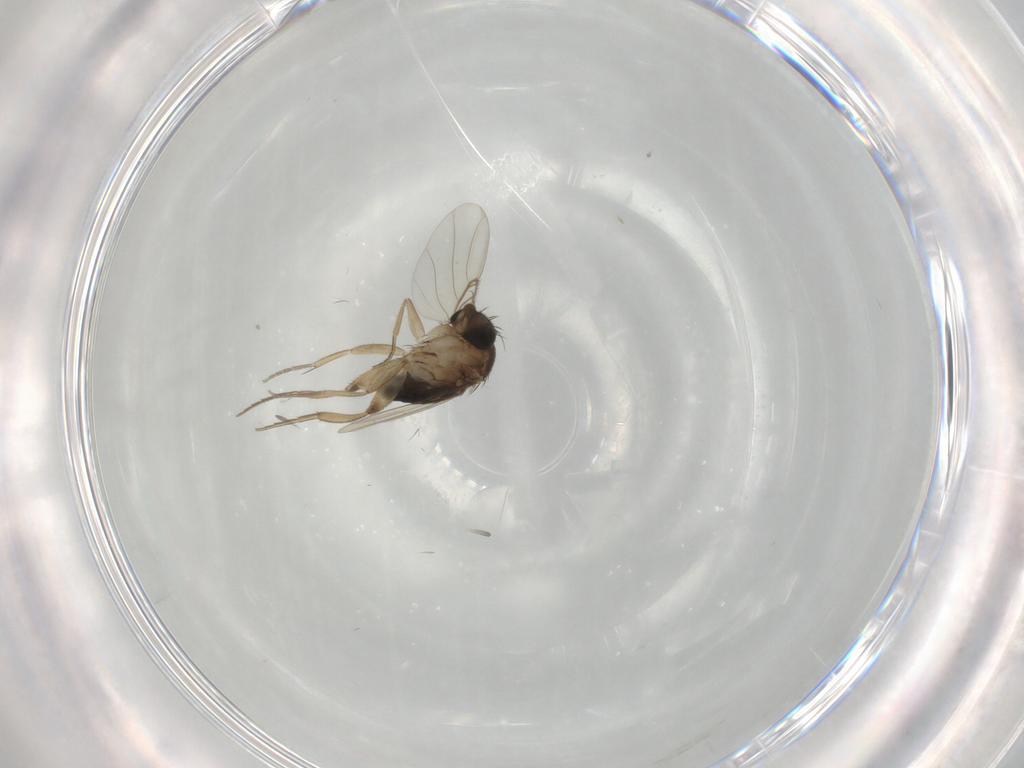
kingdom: Animalia
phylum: Arthropoda
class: Insecta
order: Diptera
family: Phoridae
